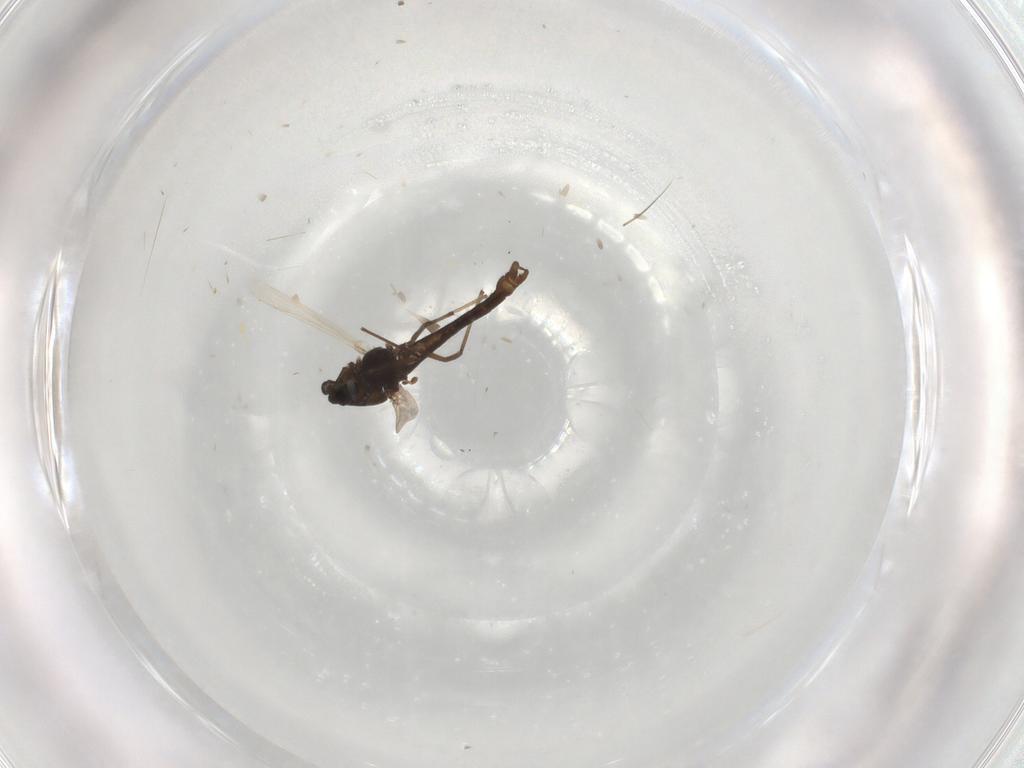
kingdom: Animalia
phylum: Arthropoda
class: Insecta
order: Diptera
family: Chironomidae
